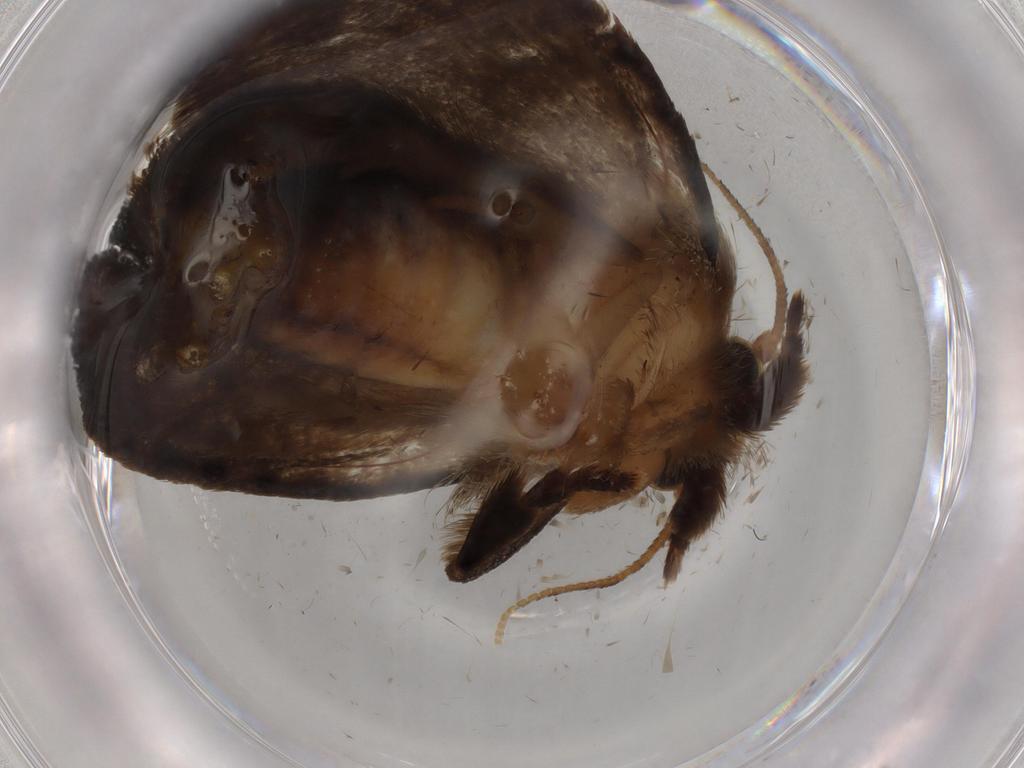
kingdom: Animalia
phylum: Arthropoda
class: Insecta
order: Lepidoptera
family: Tineidae
